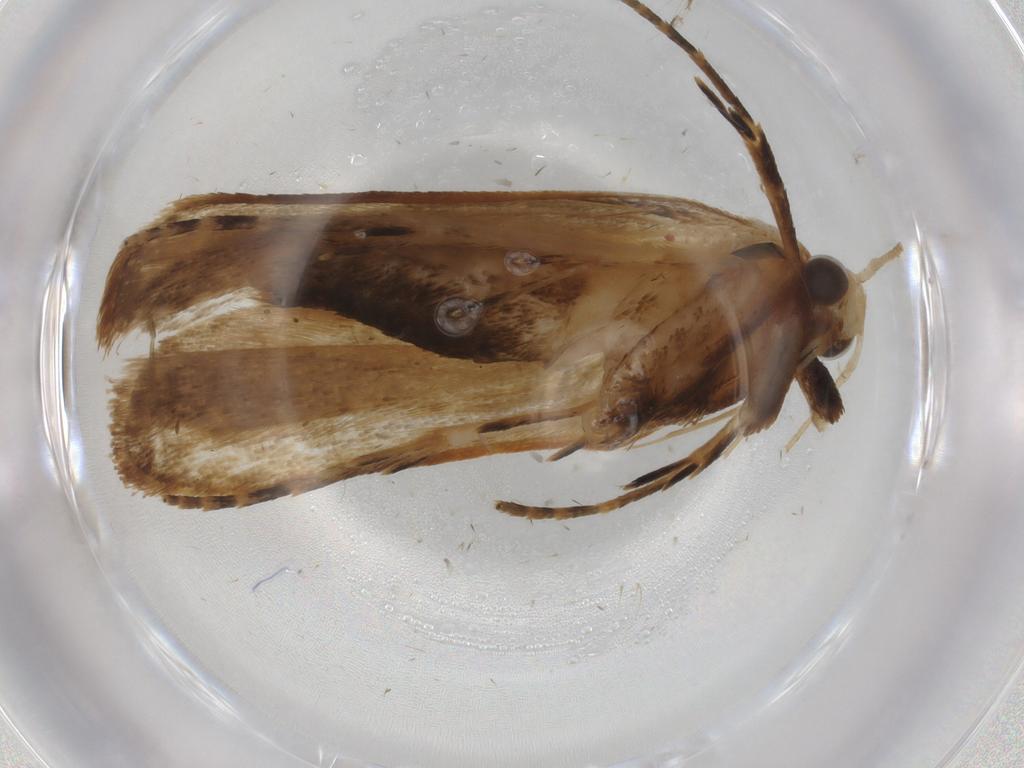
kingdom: Animalia
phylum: Arthropoda
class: Insecta
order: Lepidoptera
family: Gelechiidae
